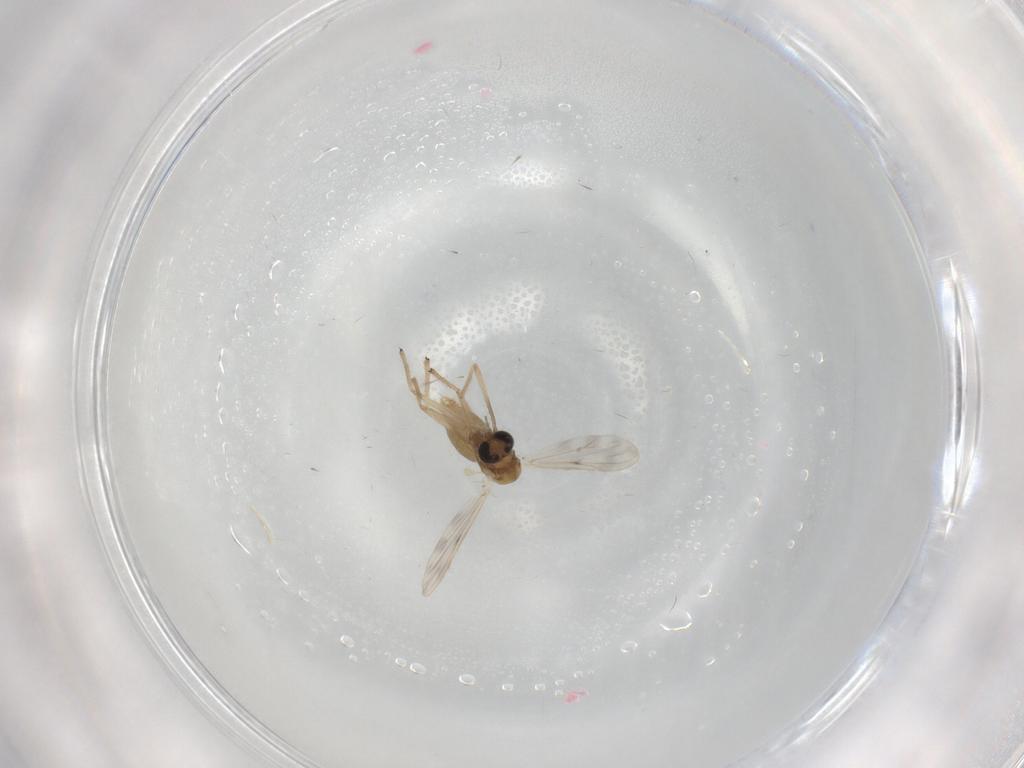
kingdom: Animalia
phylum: Arthropoda
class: Insecta
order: Diptera
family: Chironomidae
